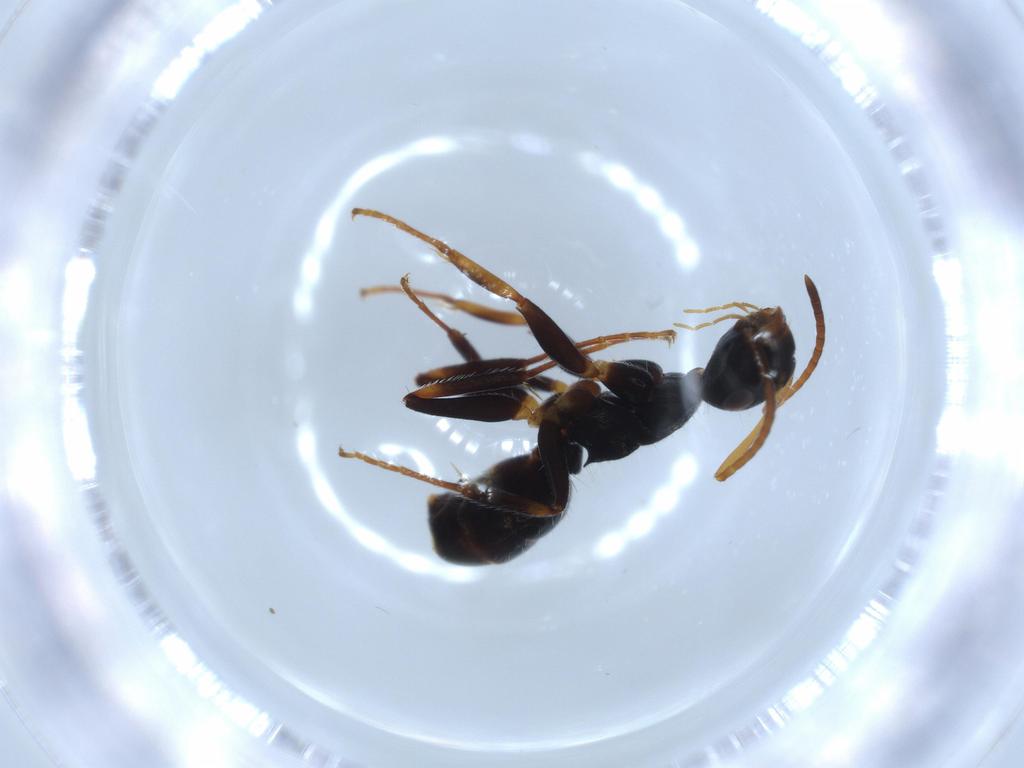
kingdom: Animalia
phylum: Arthropoda
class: Insecta
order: Hymenoptera
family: Formicidae
